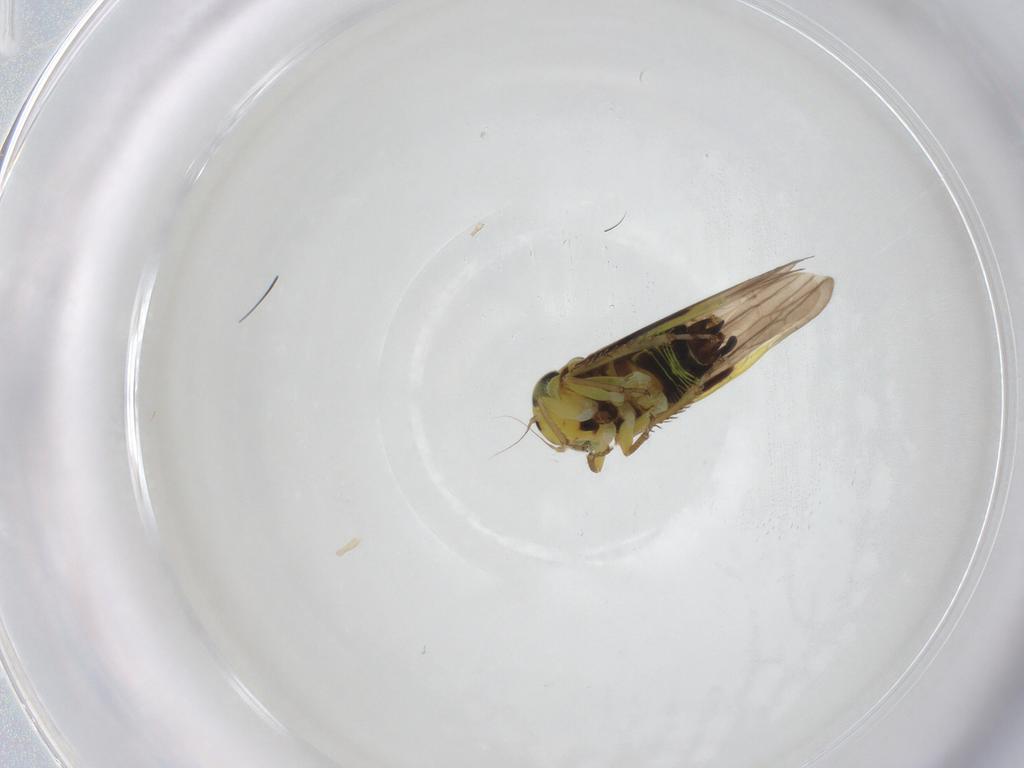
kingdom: Animalia
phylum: Arthropoda
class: Insecta
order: Hemiptera
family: Cicadellidae
